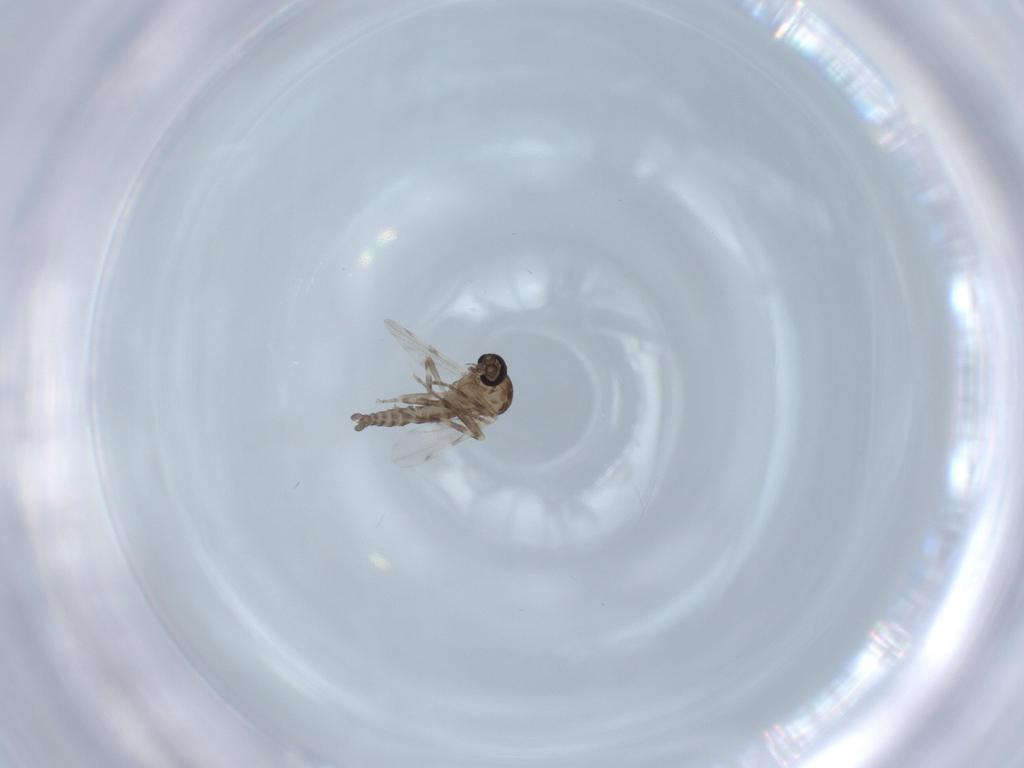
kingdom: Animalia
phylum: Arthropoda
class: Insecta
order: Diptera
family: Ceratopogonidae
